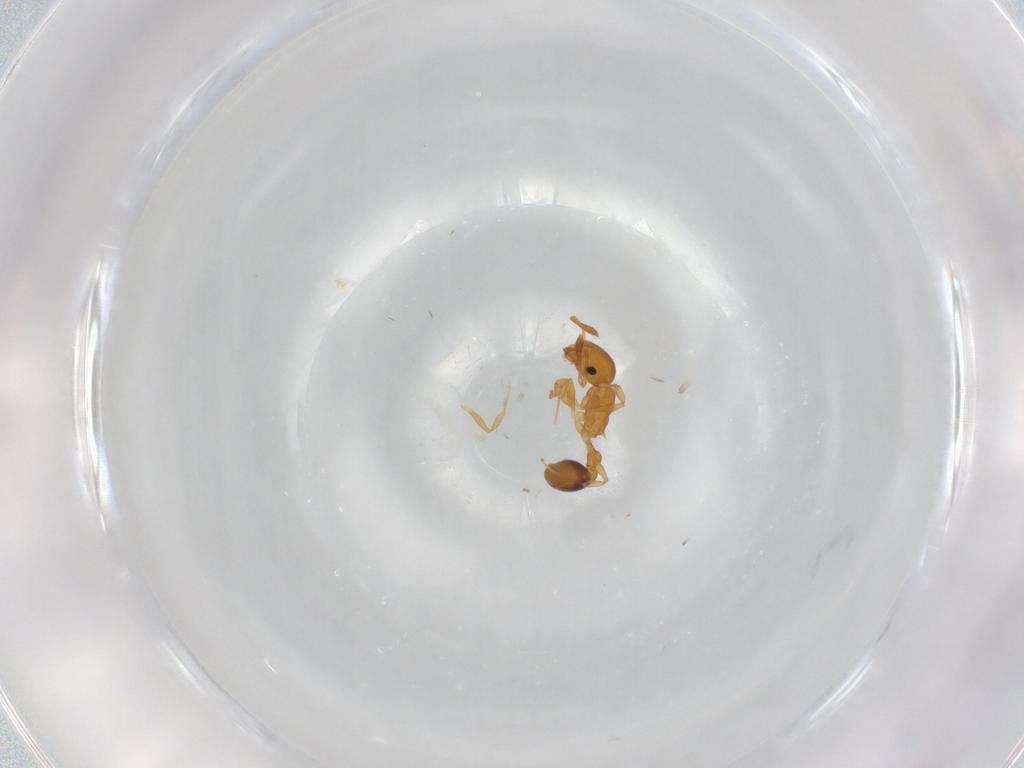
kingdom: Animalia
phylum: Arthropoda
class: Insecta
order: Hymenoptera
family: Formicidae
